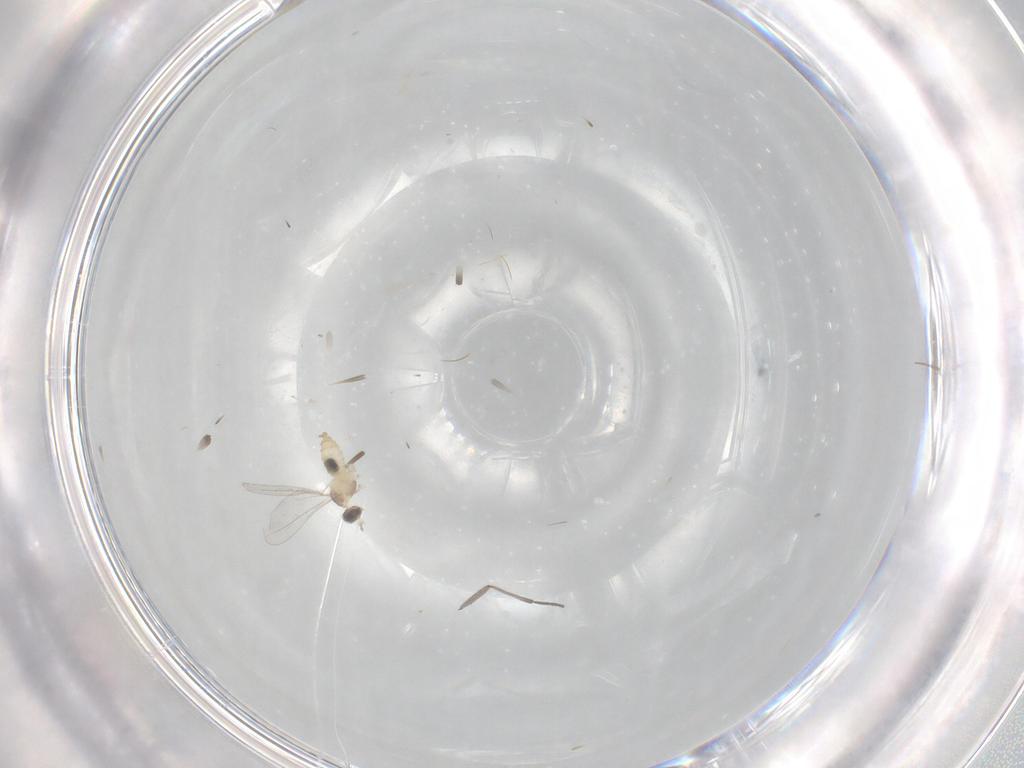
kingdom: Animalia
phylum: Arthropoda
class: Insecta
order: Diptera
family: Cecidomyiidae
